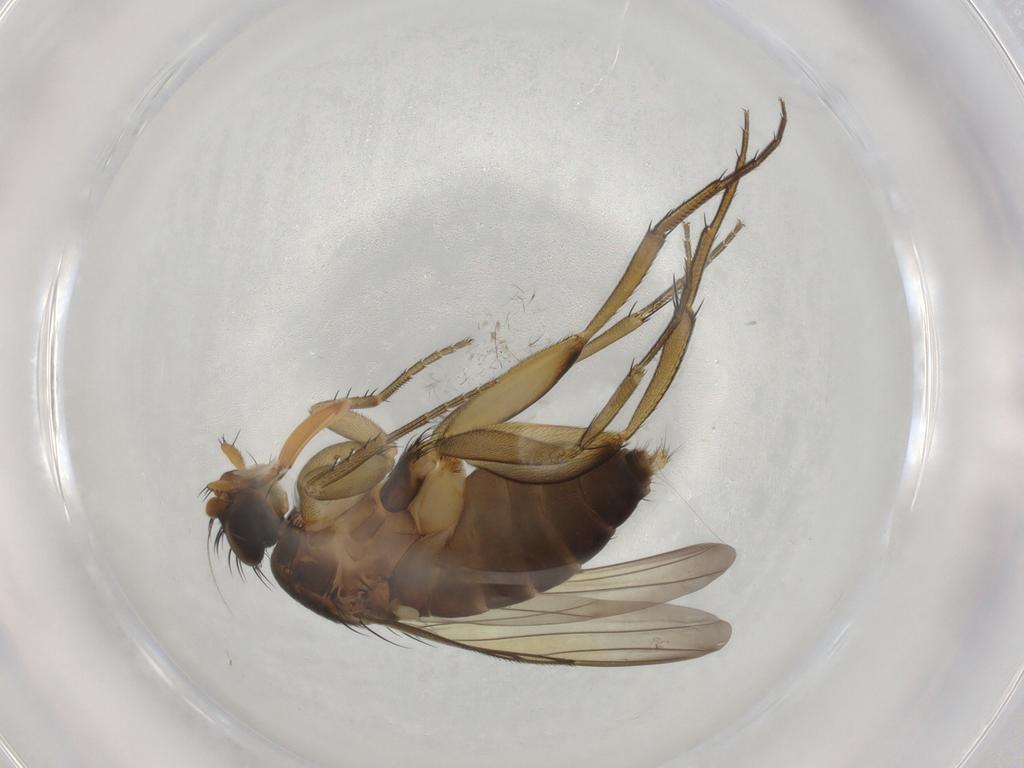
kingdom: Animalia
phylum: Arthropoda
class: Insecta
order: Diptera
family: Phoridae
